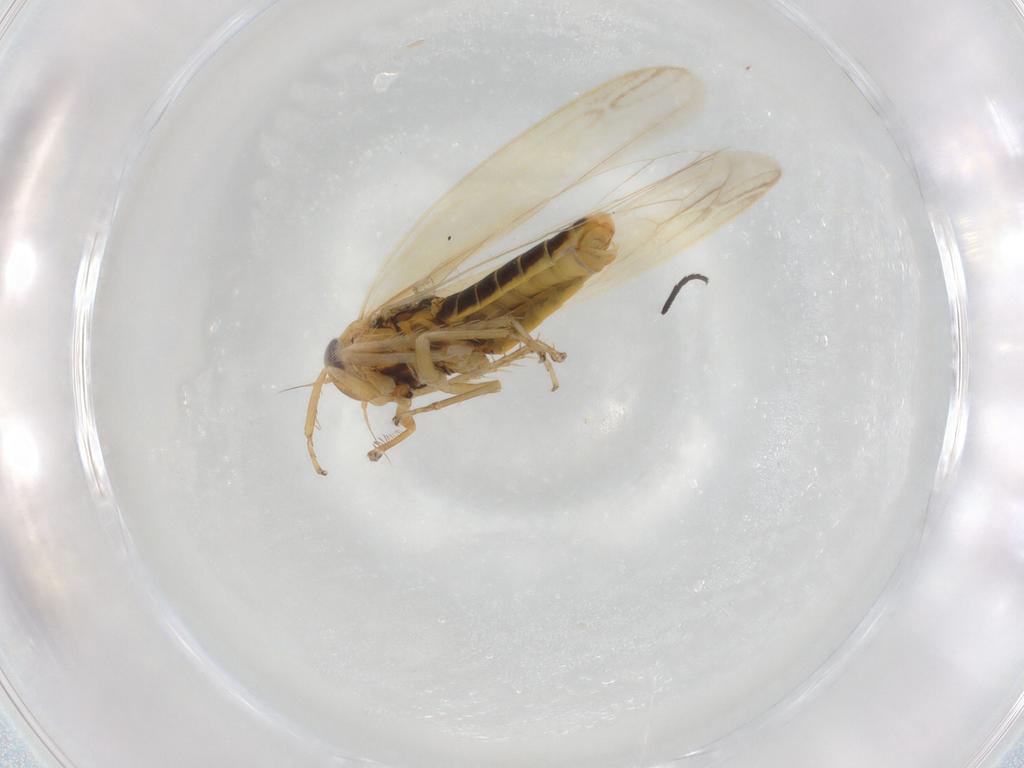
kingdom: Animalia
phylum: Arthropoda
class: Insecta
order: Hemiptera
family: Cicadellidae
